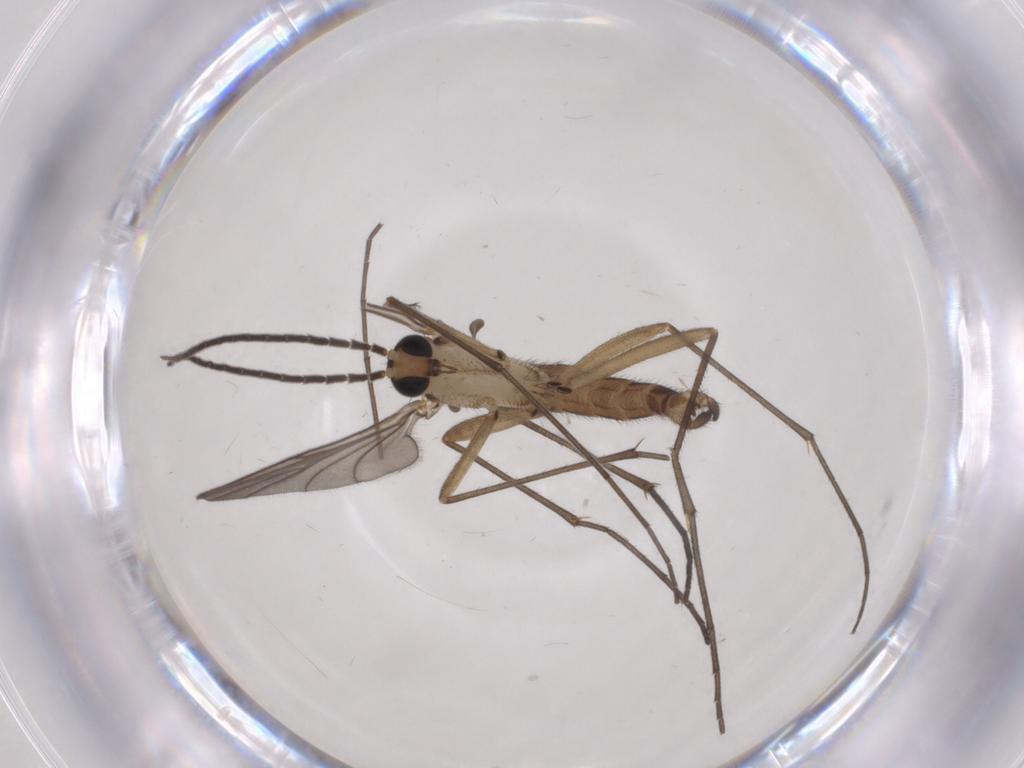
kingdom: Animalia
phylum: Arthropoda
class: Insecta
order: Diptera
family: Sciaridae
